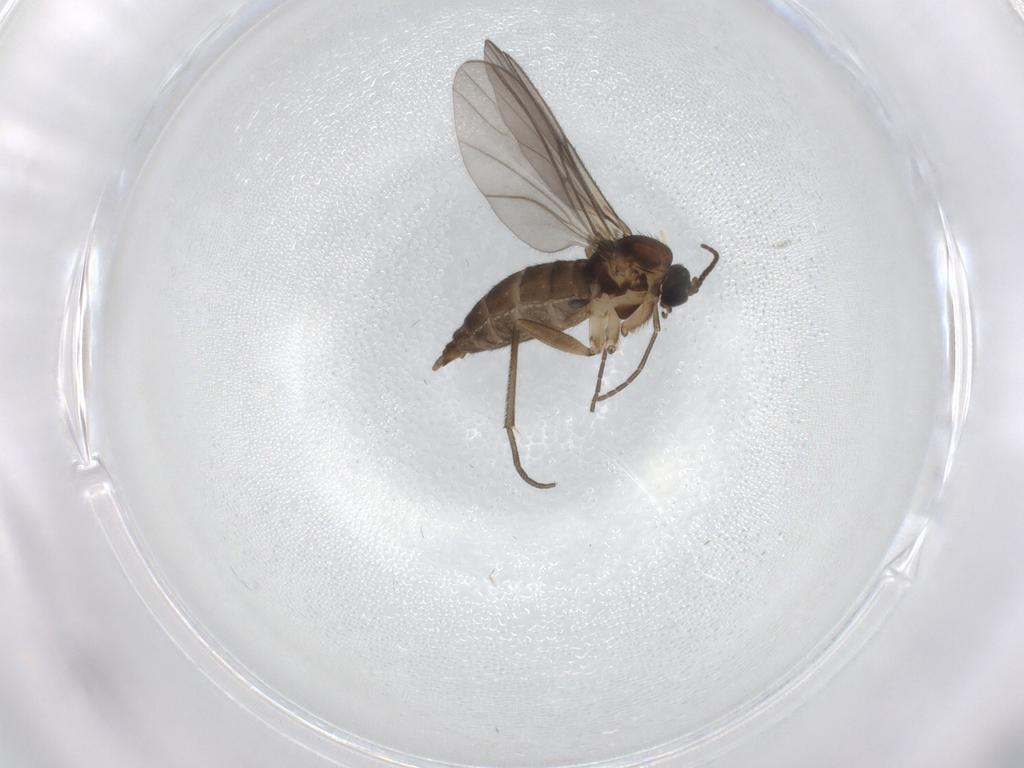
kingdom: Animalia
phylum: Arthropoda
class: Insecta
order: Diptera
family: Sciaridae
